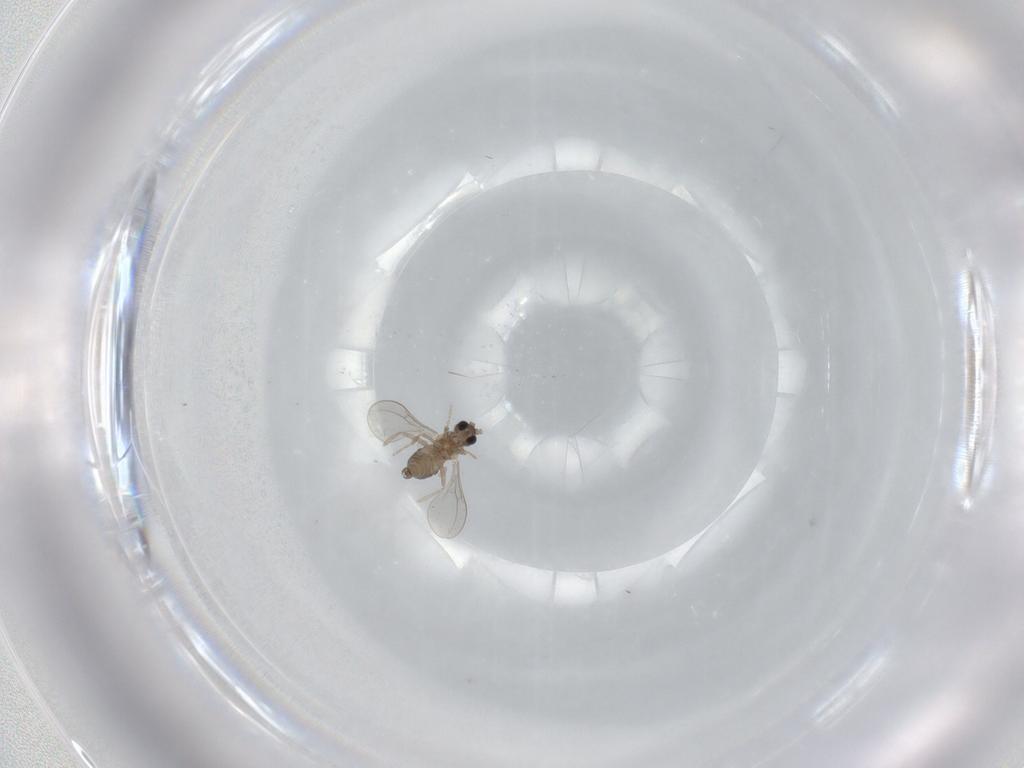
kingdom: Animalia
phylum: Arthropoda
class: Insecta
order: Diptera
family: Cecidomyiidae
